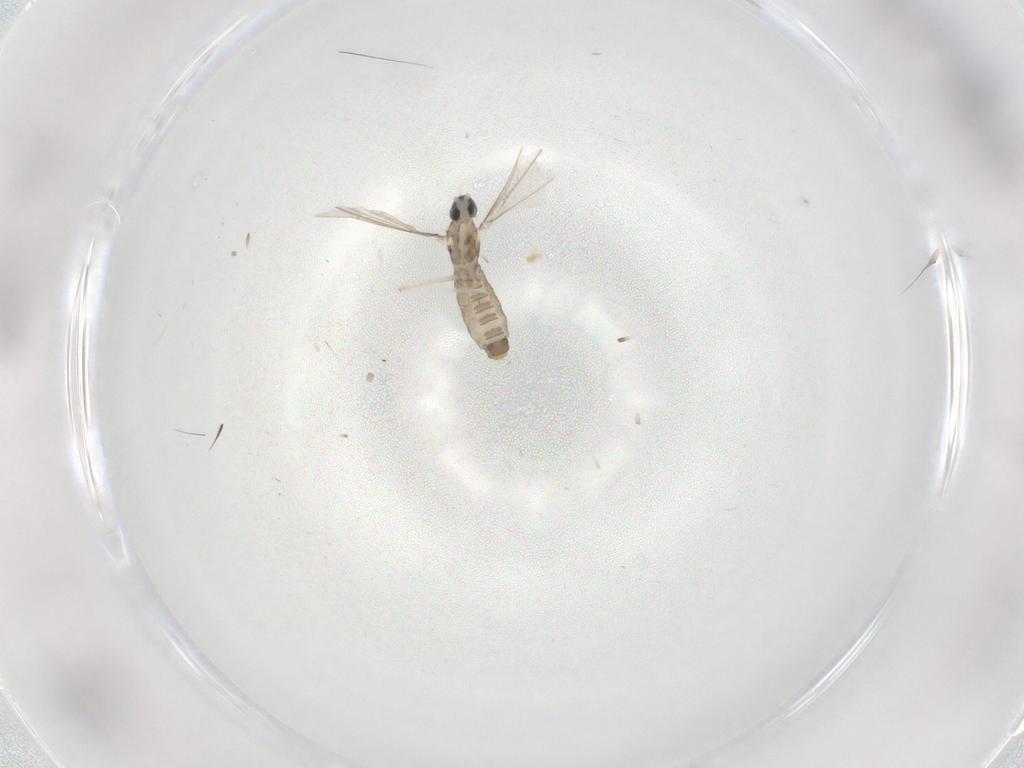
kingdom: Animalia
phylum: Arthropoda
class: Insecta
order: Diptera
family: Cecidomyiidae
